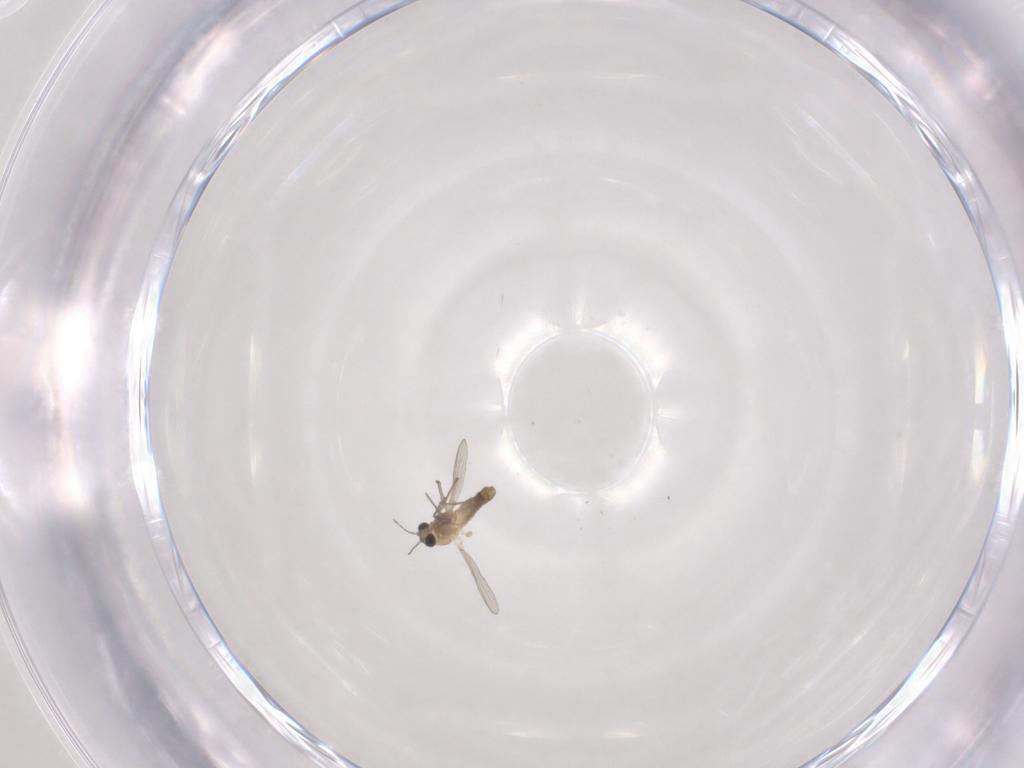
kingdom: Animalia
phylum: Arthropoda
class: Insecta
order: Diptera
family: Chironomidae
